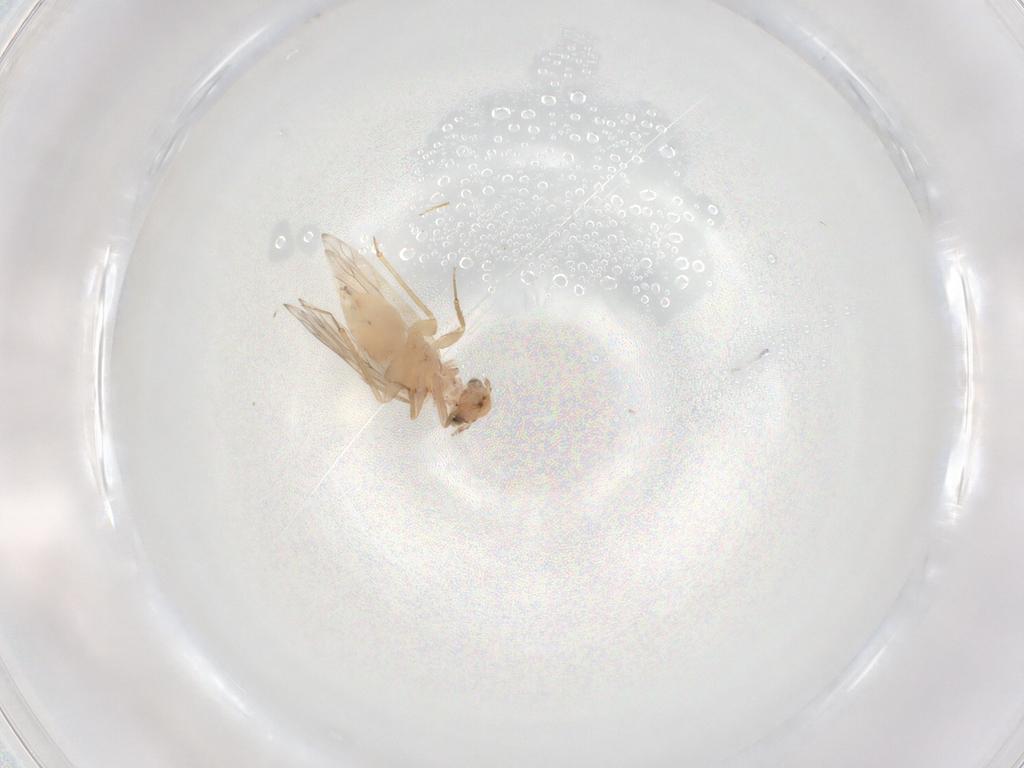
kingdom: Animalia
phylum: Arthropoda
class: Insecta
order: Psocodea
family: Lepidopsocidae
